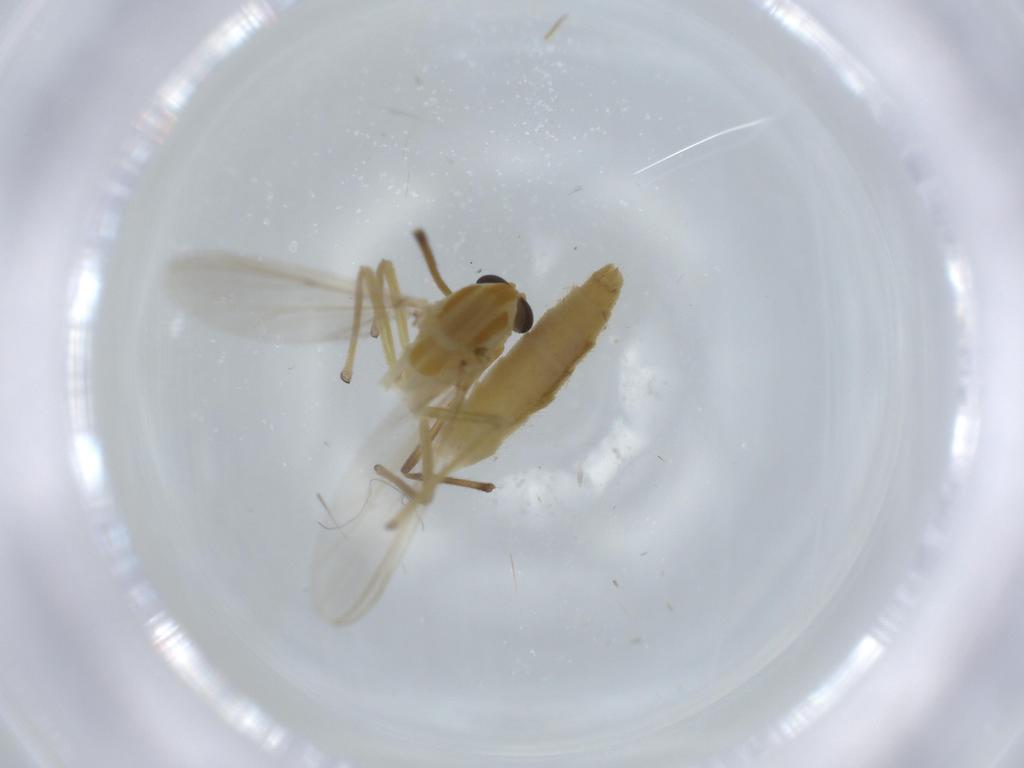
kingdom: Animalia
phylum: Arthropoda
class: Insecta
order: Diptera
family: Chironomidae
